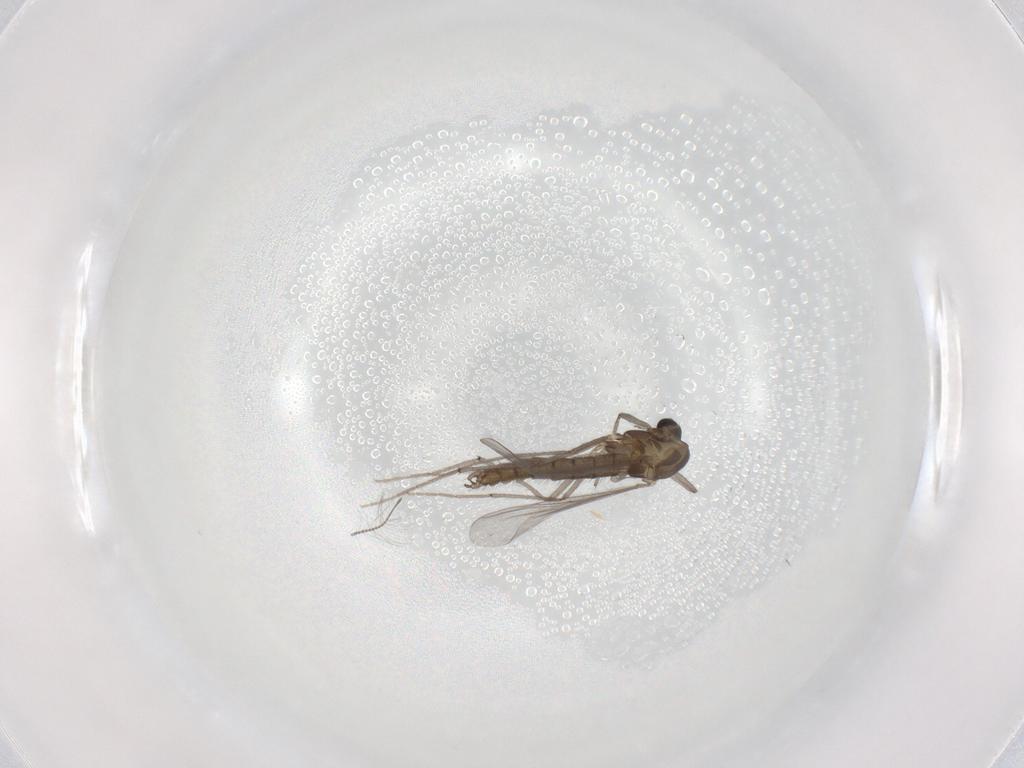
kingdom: Animalia
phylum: Arthropoda
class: Insecta
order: Diptera
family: Chironomidae
